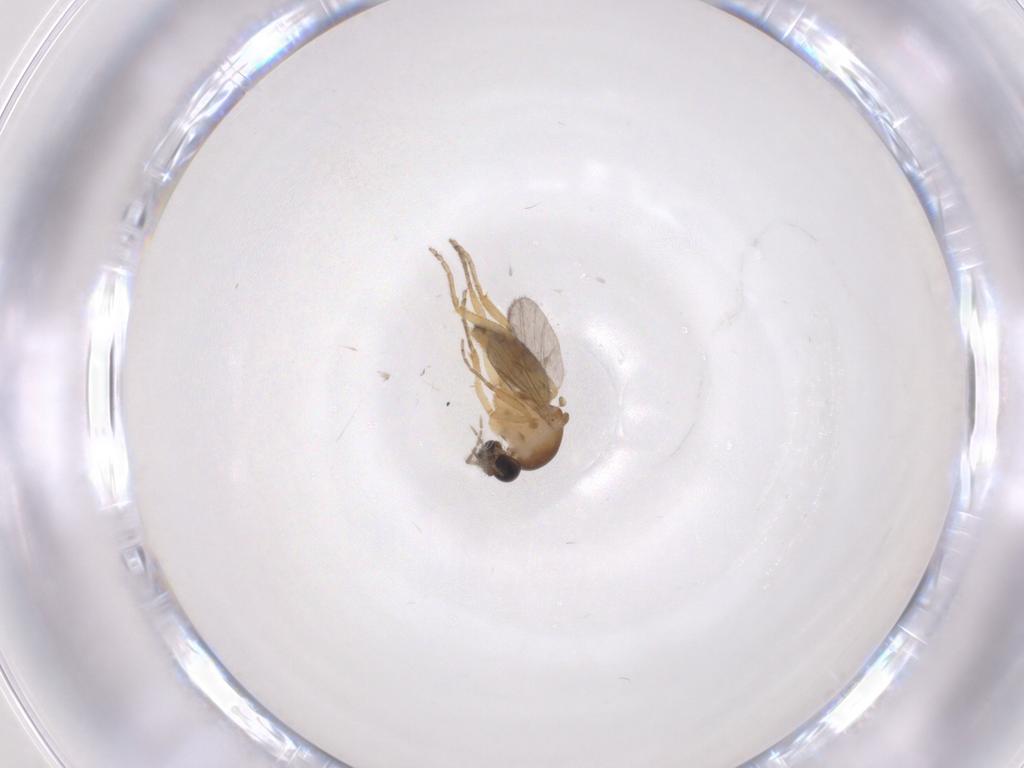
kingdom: Animalia
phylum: Arthropoda
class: Insecta
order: Diptera
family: Ceratopogonidae
